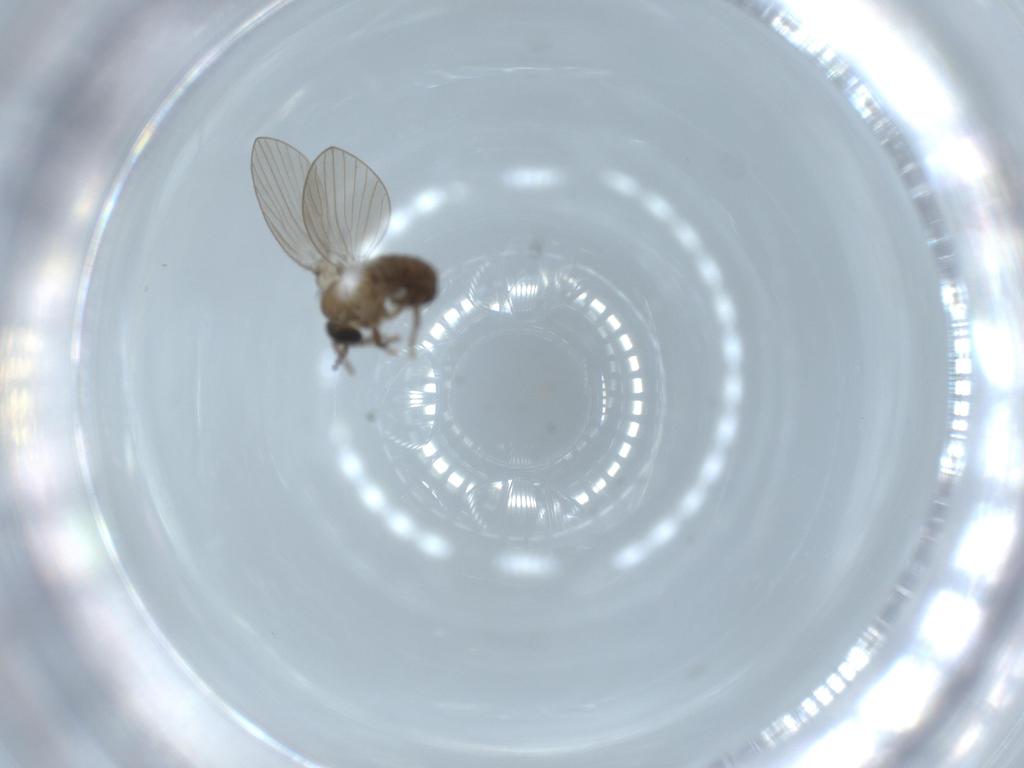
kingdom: Animalia
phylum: Arthropoda
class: Insecta
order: Diptera
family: Psychodidae
